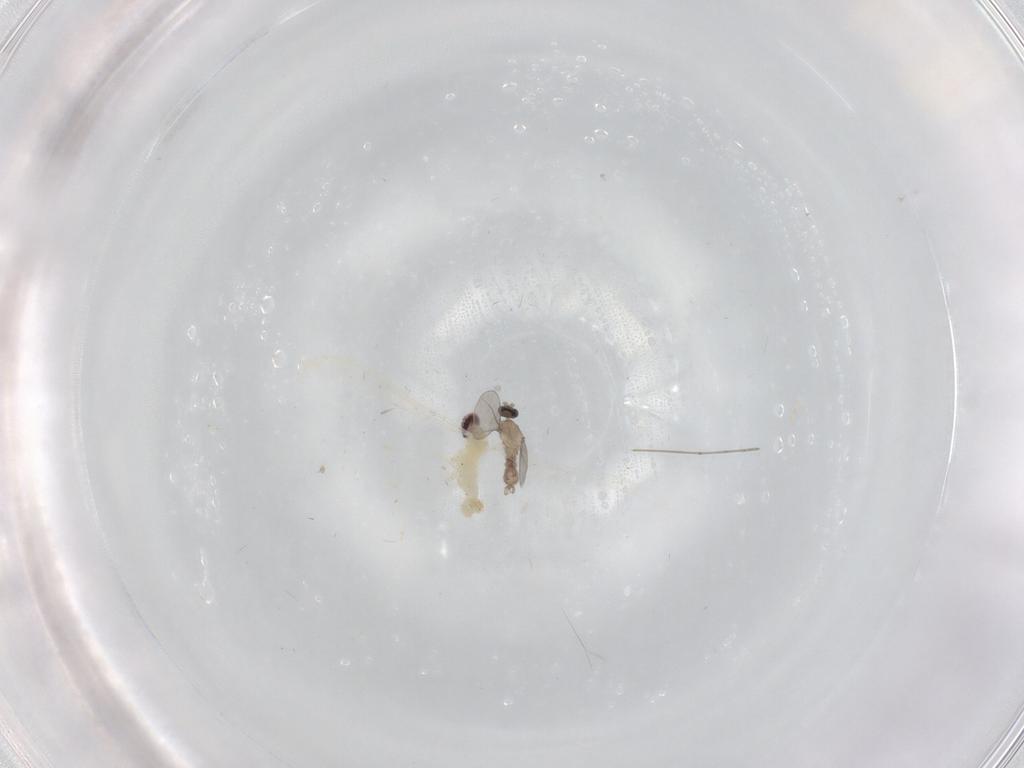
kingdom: Animalia
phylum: Arthropoda
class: Insecta
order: Diptera
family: Cecidomyiidae
